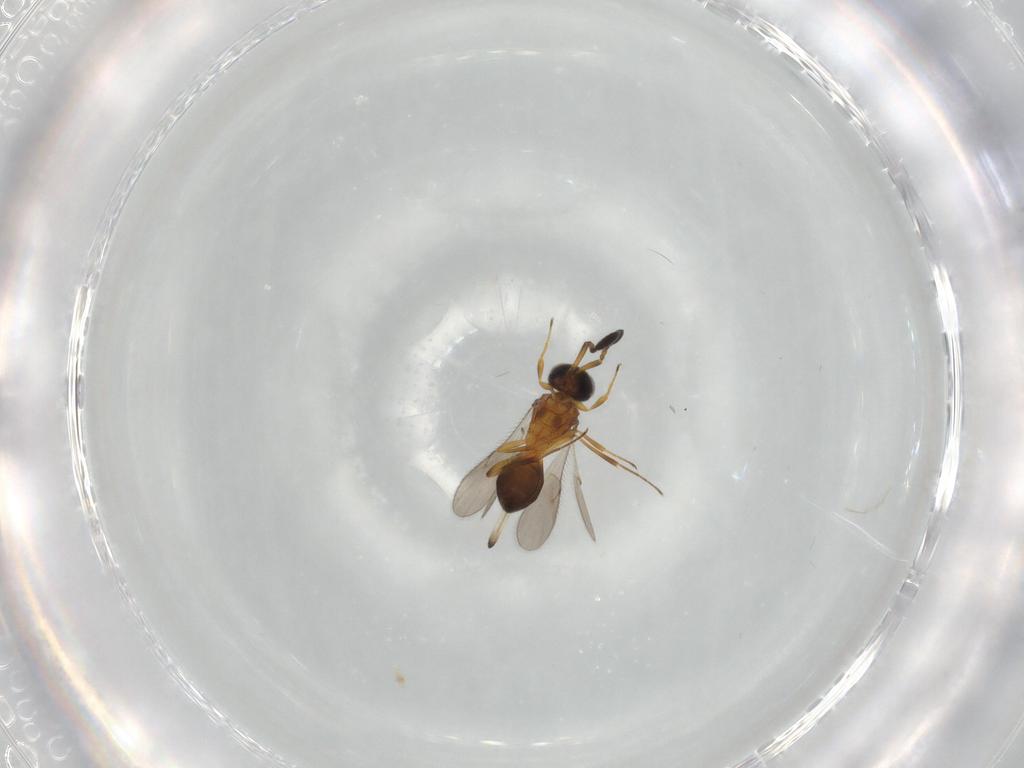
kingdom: Animalia
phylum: Arthropoda
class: Insecta
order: Hymenoptera
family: Scelionidae
